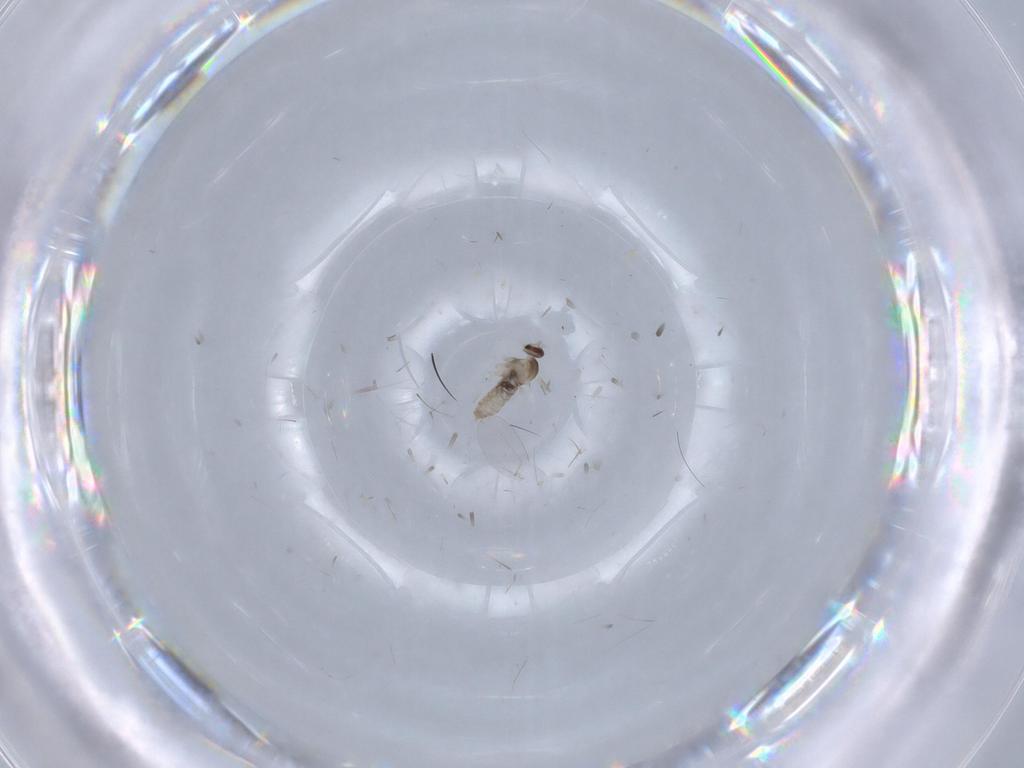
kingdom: Animalia
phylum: Arthropoda
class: Insecta
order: Diptera
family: Cecidomyiidae
